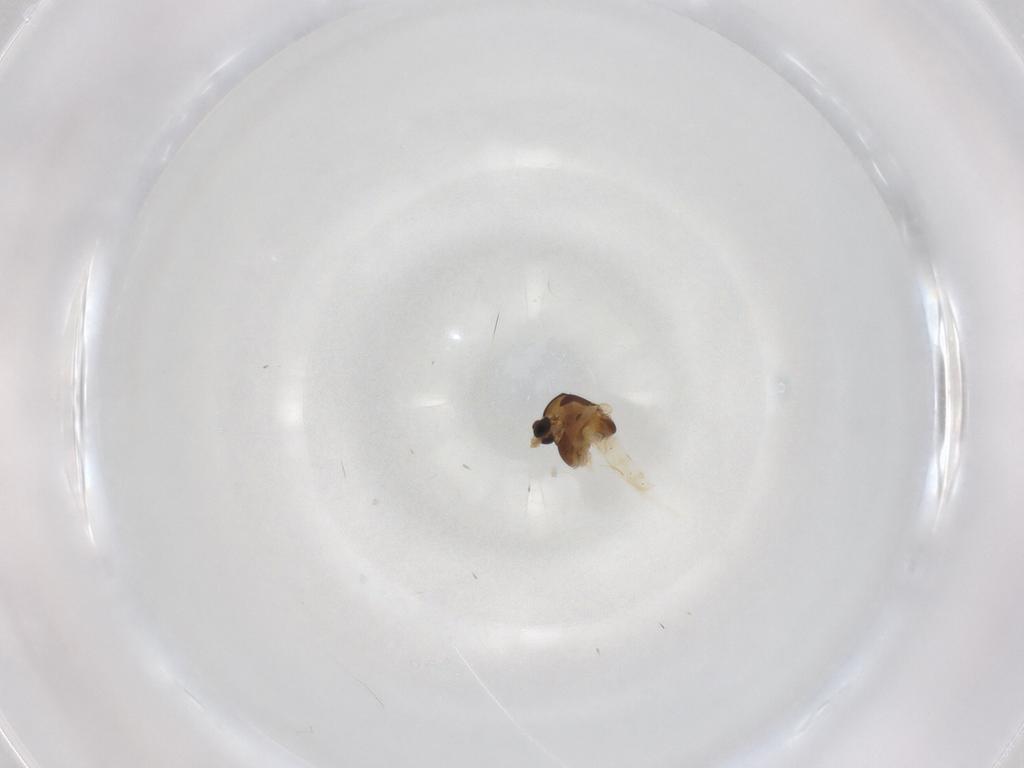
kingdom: Animalia
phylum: Arthropoda
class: Insecta
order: Diptera
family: Chironomidae
